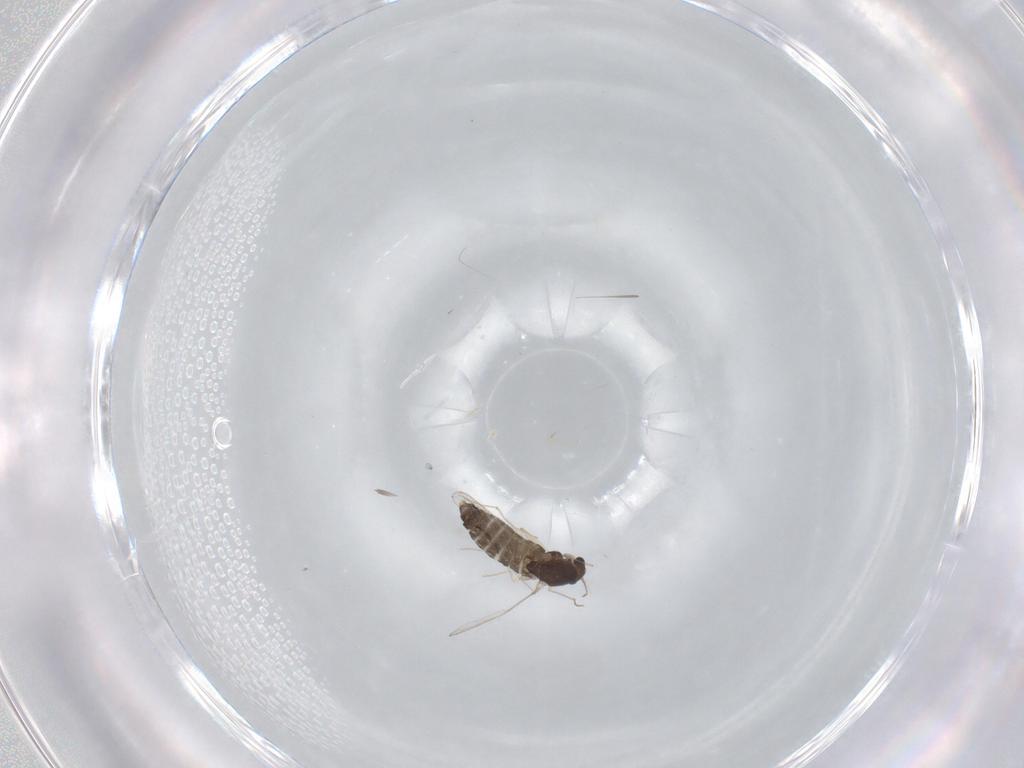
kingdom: Animalia
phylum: Arthropoda
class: Insecta
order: Diptera
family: Chironomidae
